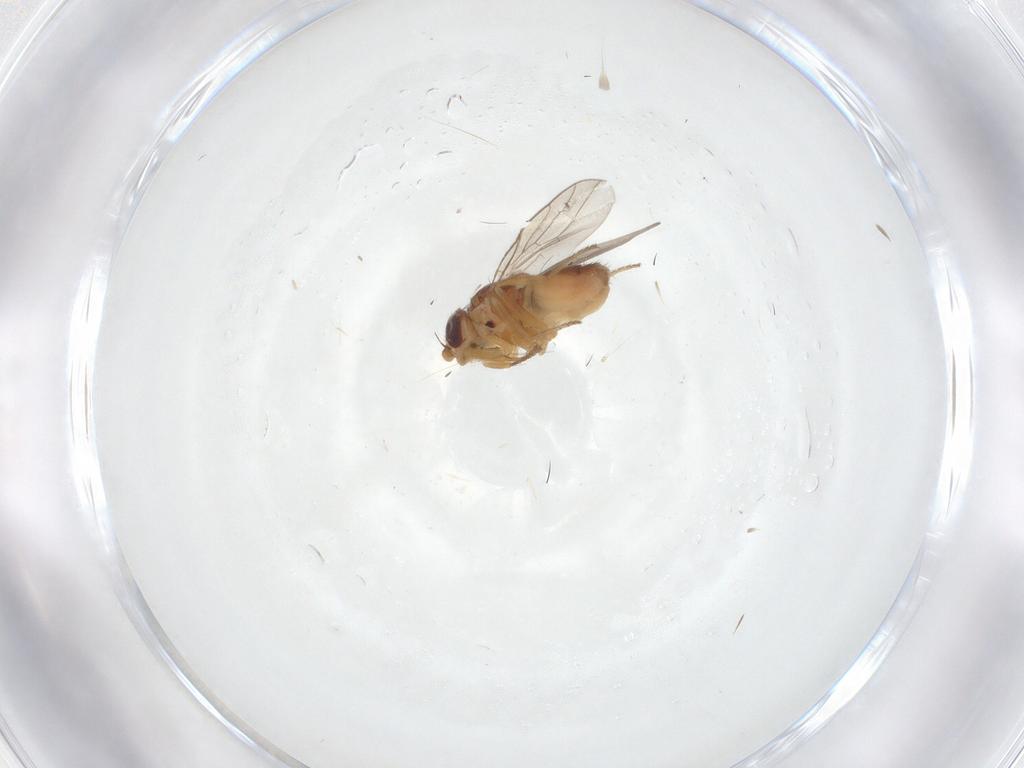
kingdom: Animalia
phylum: Arthropoda
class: Insecta
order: Diptera
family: Chloropidae
